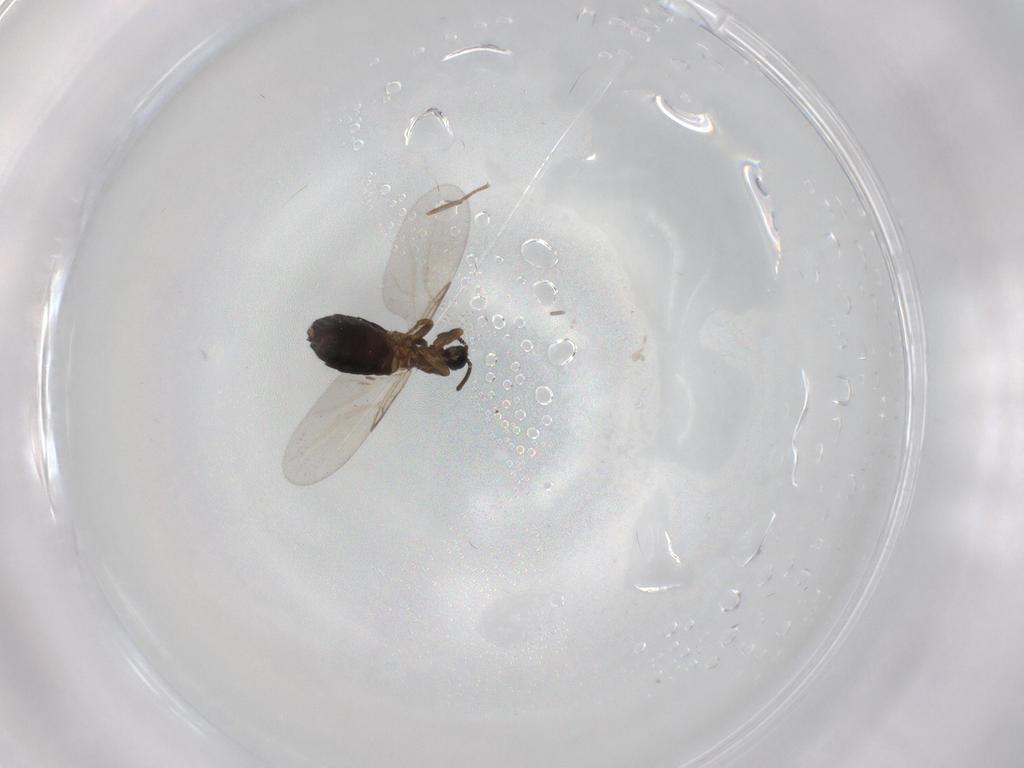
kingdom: Animalia
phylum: Arthropoda
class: Insecta
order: Diptera
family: Scatopsidae
